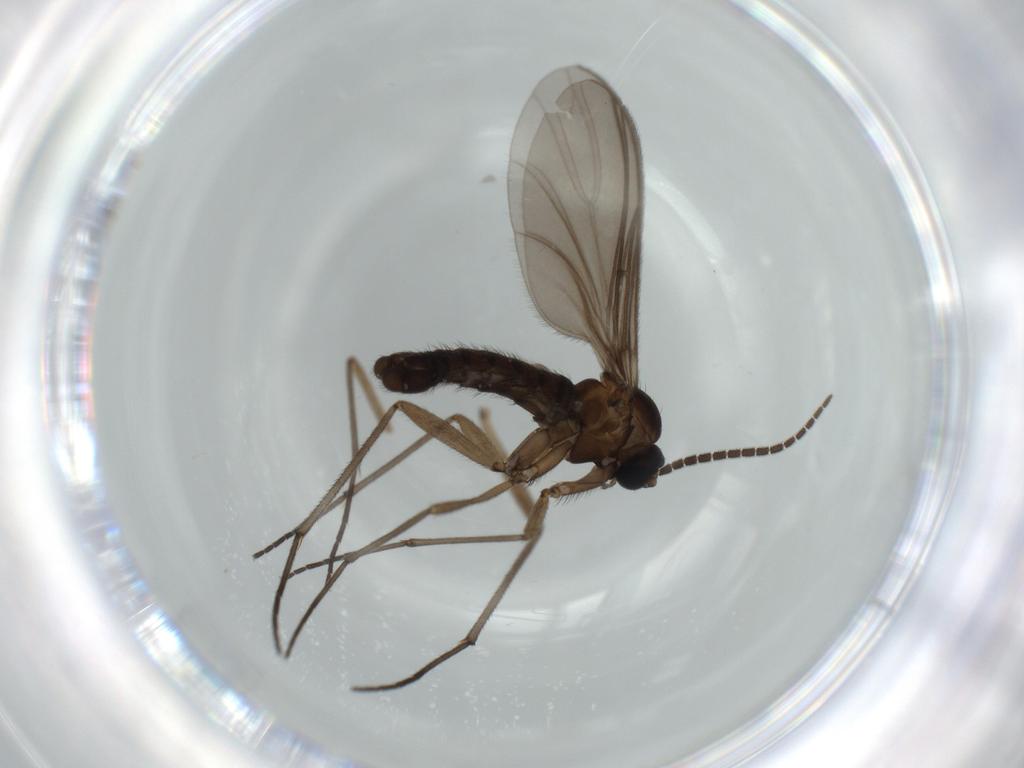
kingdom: Animalia
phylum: Arthropoda
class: Insecta
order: Diptera
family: Sciaridae
